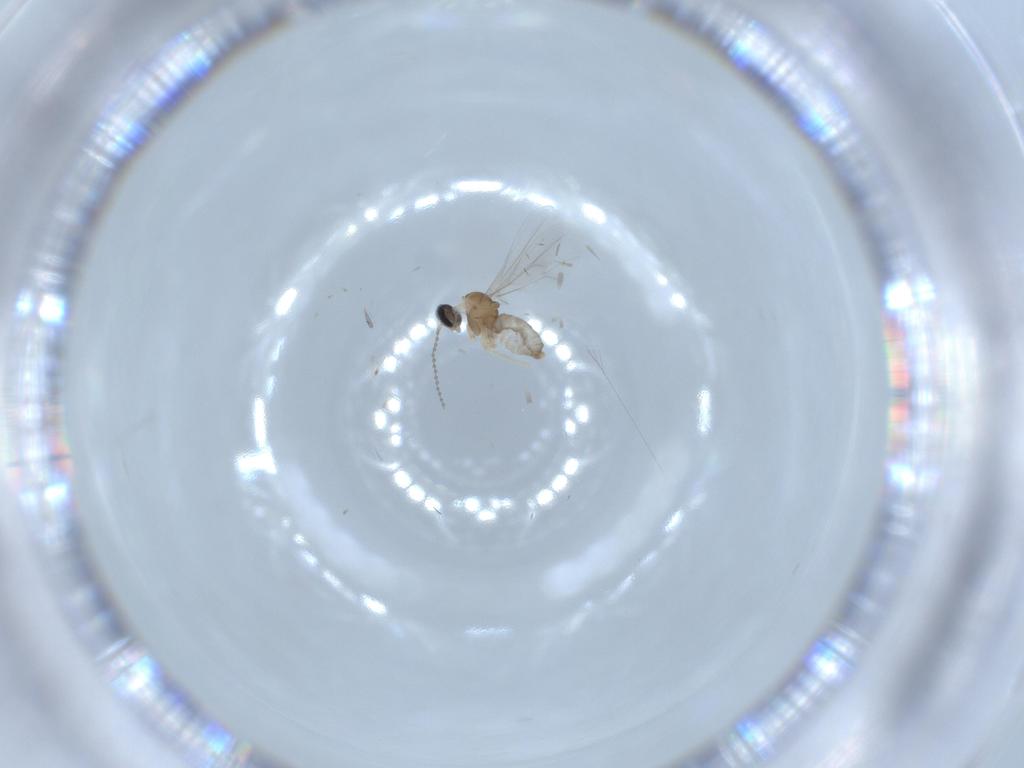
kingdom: Animalia
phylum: Arthropoda
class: Insecta
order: Diptera
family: Cecidomyiidae
